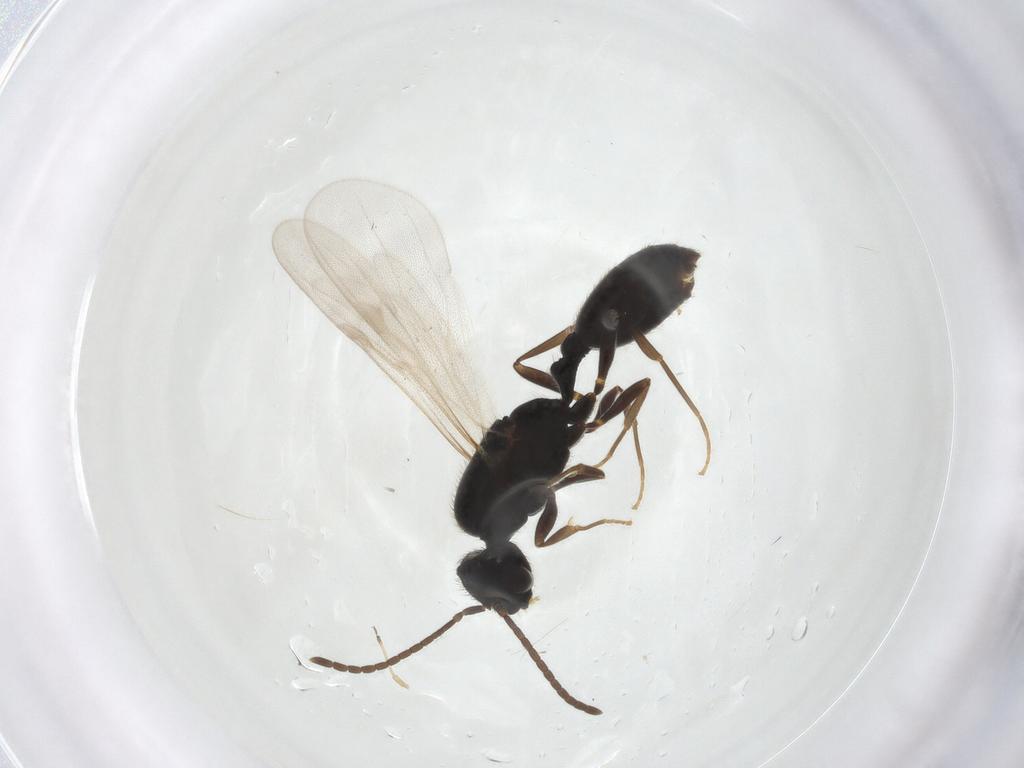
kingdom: Animalia
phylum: Arthropoda
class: Insecta
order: Hymenoptera
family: Formicidae
